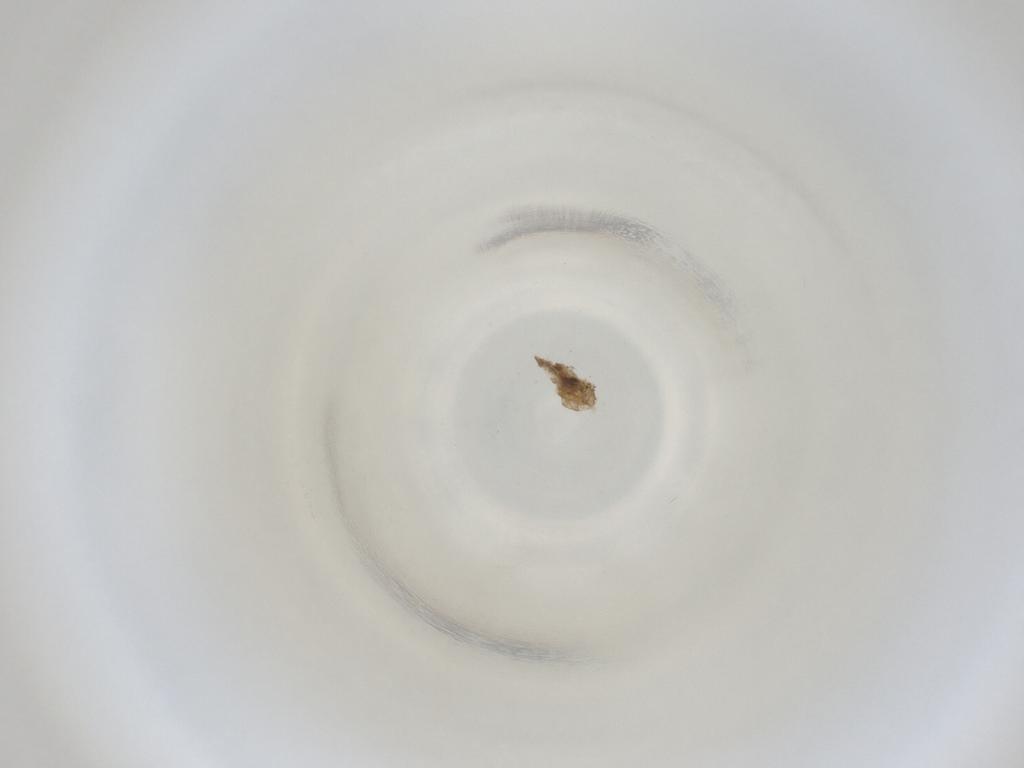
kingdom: Animalia
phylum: Arthropoda
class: Insecta
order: Diptera
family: Cecidomyiidae
